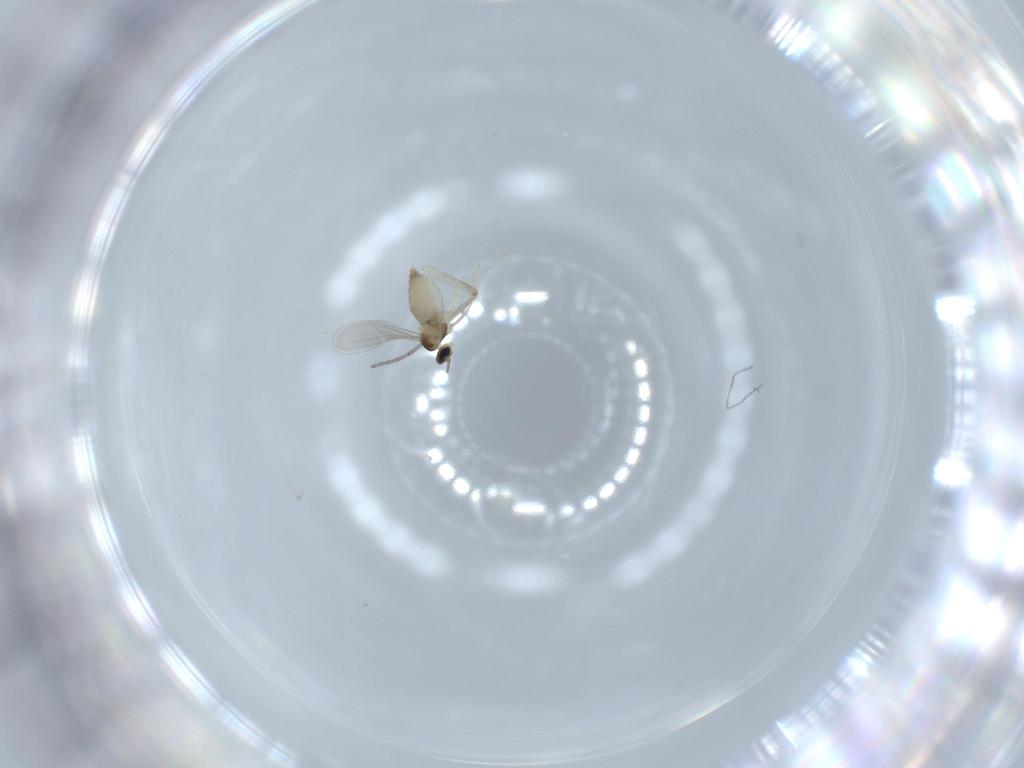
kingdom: Animalia
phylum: Arthropoda
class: Insecta
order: Diptera
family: Chironomidae
